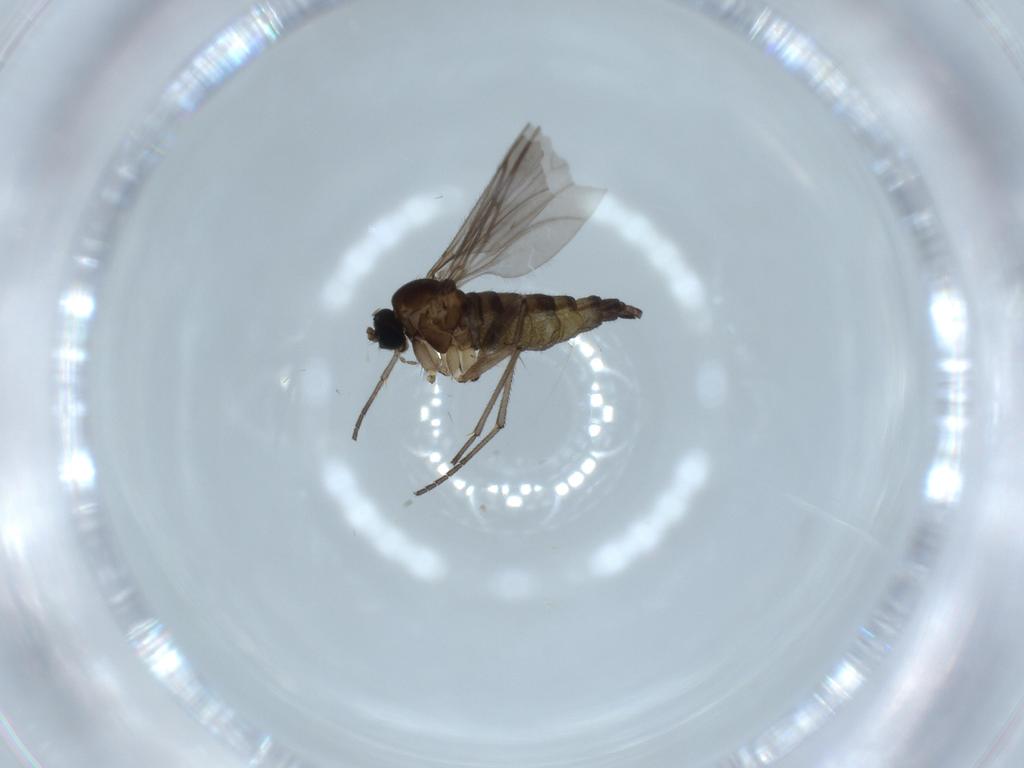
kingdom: Animalia
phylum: Arthropoda
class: Insecta
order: Diptera
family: Sciaridae
